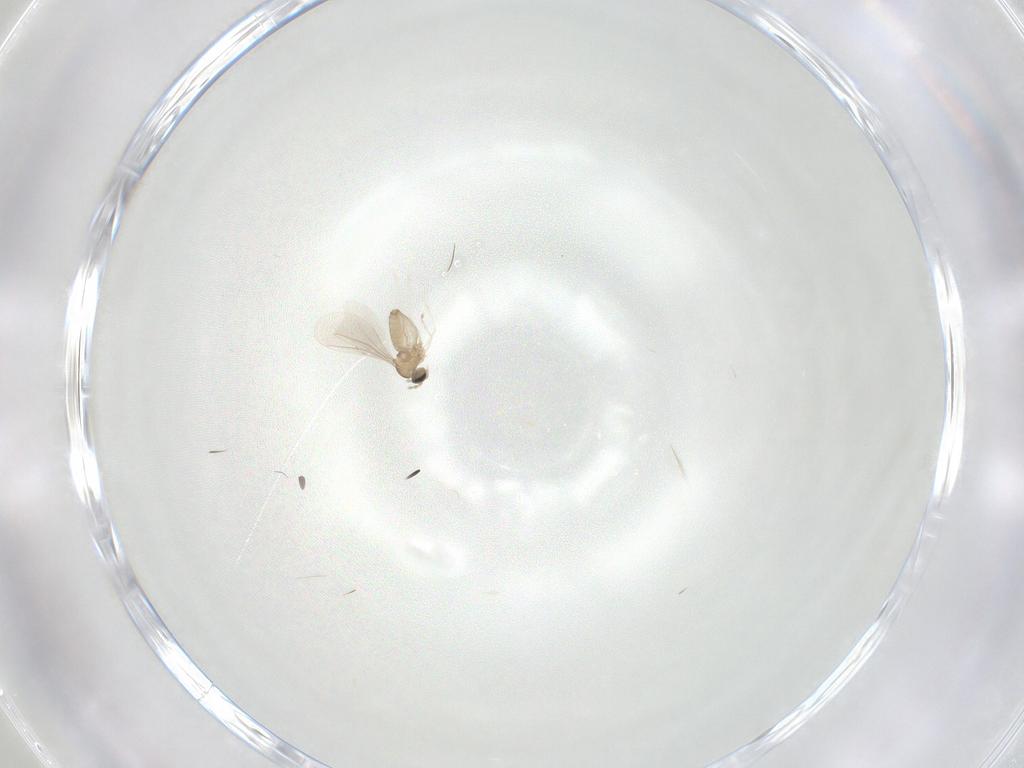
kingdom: Animalia
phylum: Arthropoda
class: Insecta
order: Diptera
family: Cecidomyiidae
